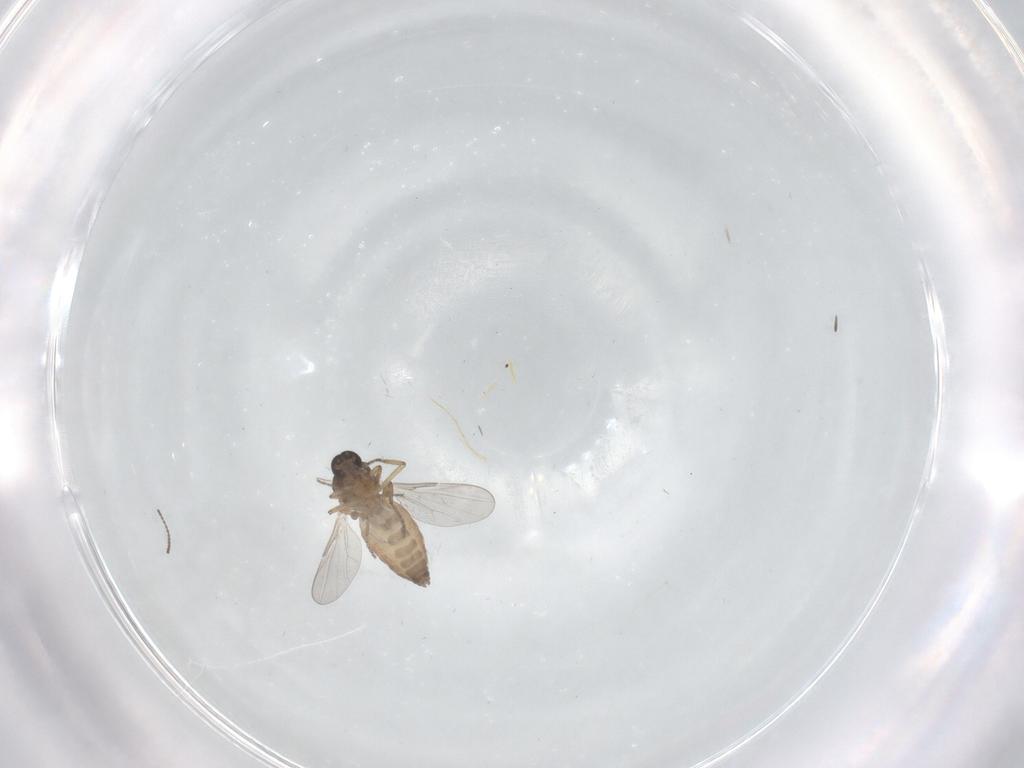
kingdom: Animalia
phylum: Arthropoda
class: Insecta
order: Diptera
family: Ceratopogonidae
